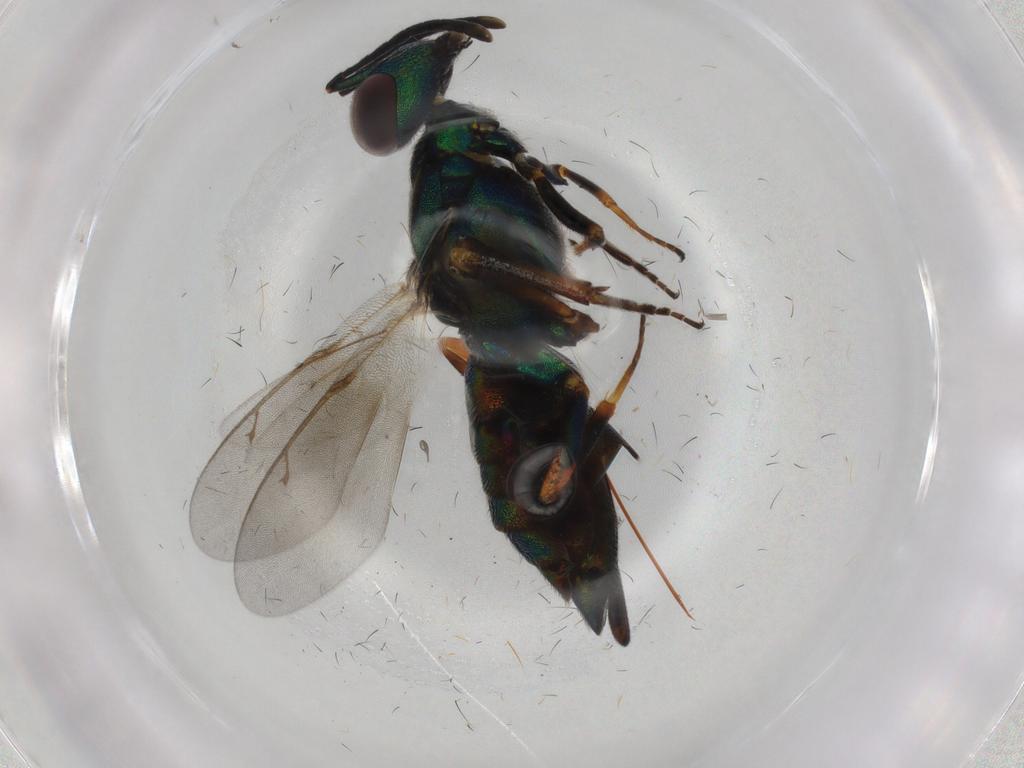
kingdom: Animalia
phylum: Arthropoda
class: Insecta
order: Hymenoptera
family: Eupelmidae
